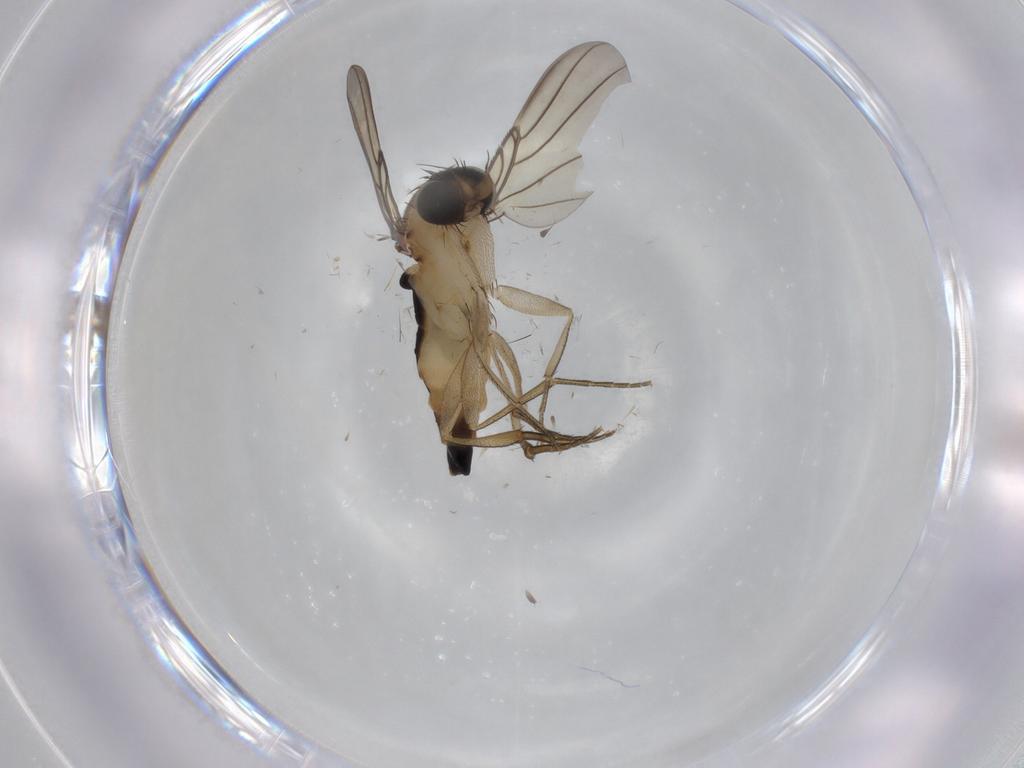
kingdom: Animalia
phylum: Arthropoda
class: Insecta
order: Diptera
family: Phoridae
